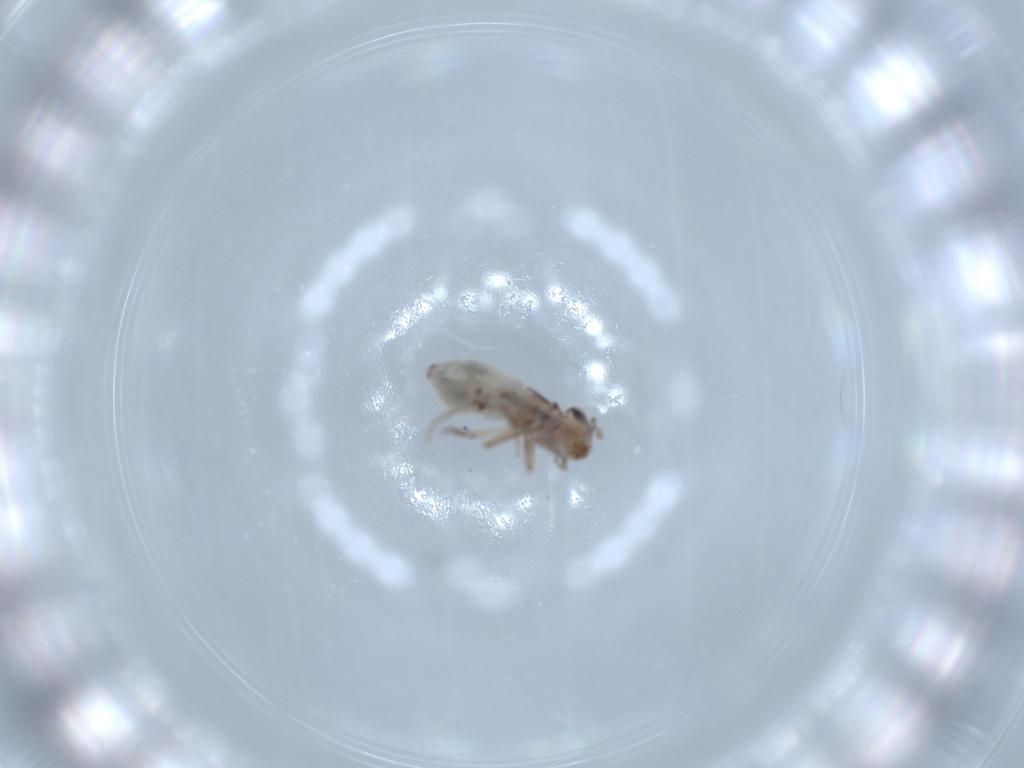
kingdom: Animalia
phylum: Arthropoda
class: Insecta
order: Psocodea
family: Lepidopsocidae
